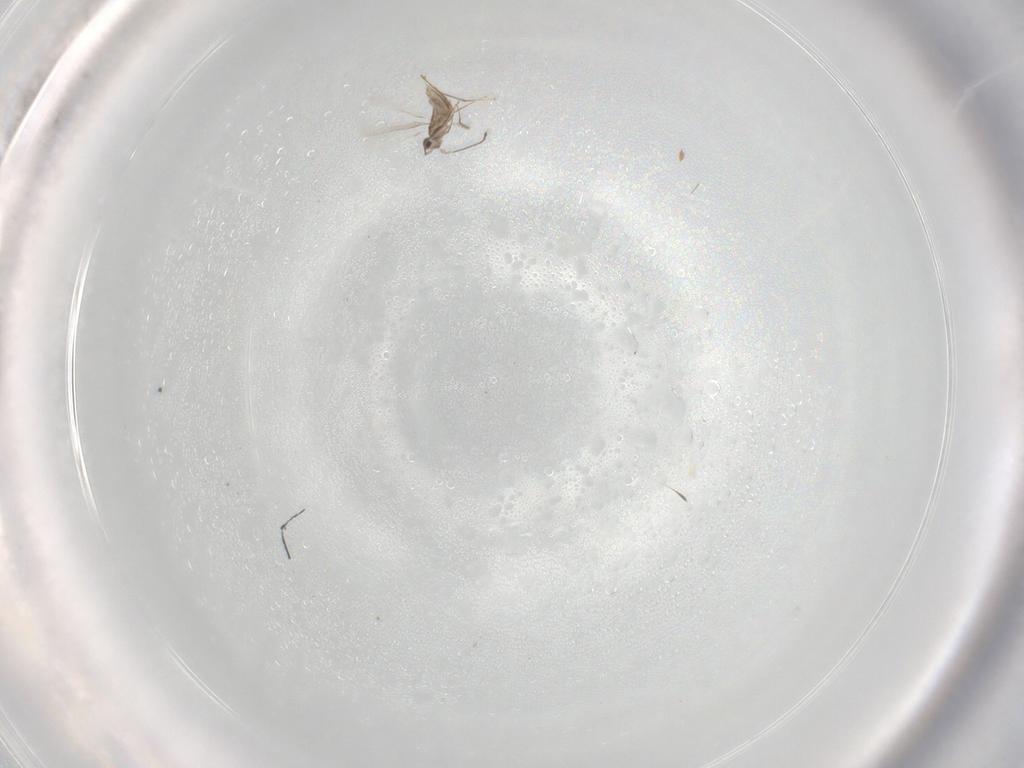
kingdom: Animalia
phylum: Arthropoda
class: Insecta
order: Hymenoptera
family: Mymaridae
